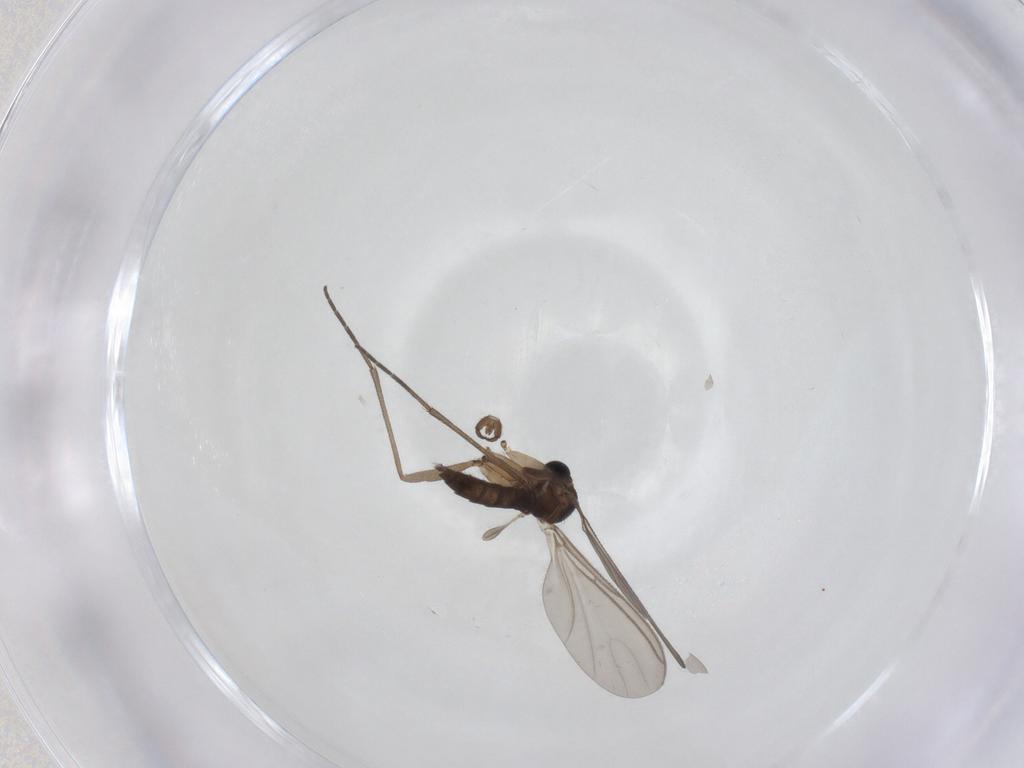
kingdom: Animalia
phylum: Arthropoda
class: Insecta
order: Diptera
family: Sciaridae
